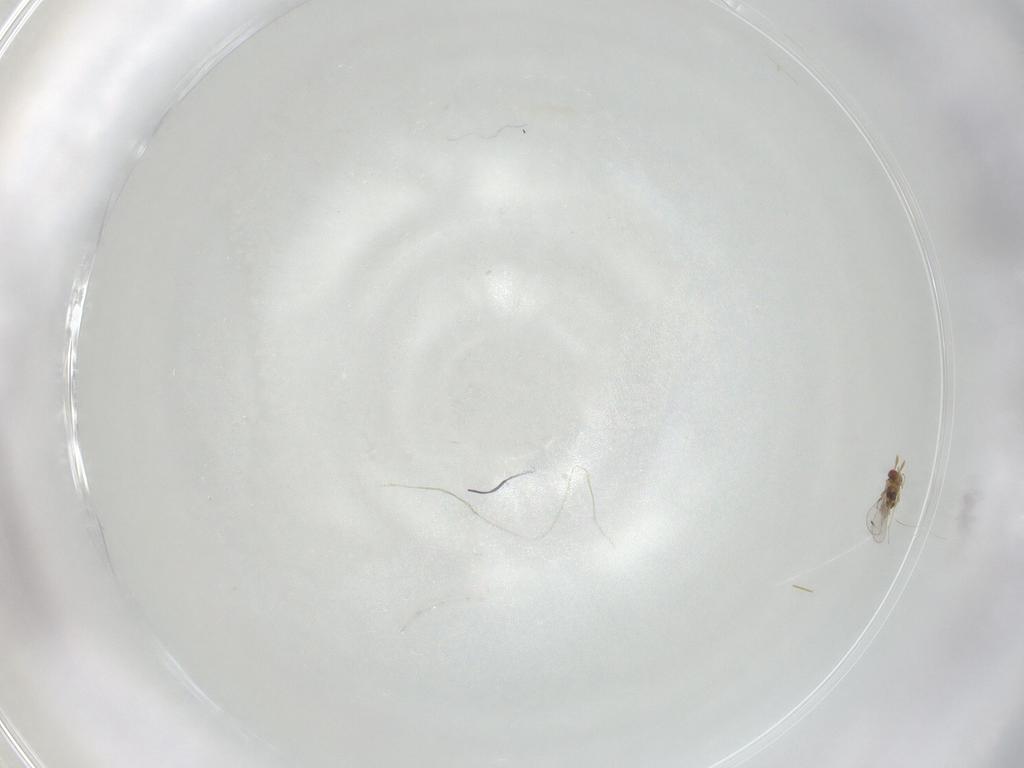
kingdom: Animalia
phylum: Arthropoda
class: Insecta
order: Hymenoptera
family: Trichogrammatidae
